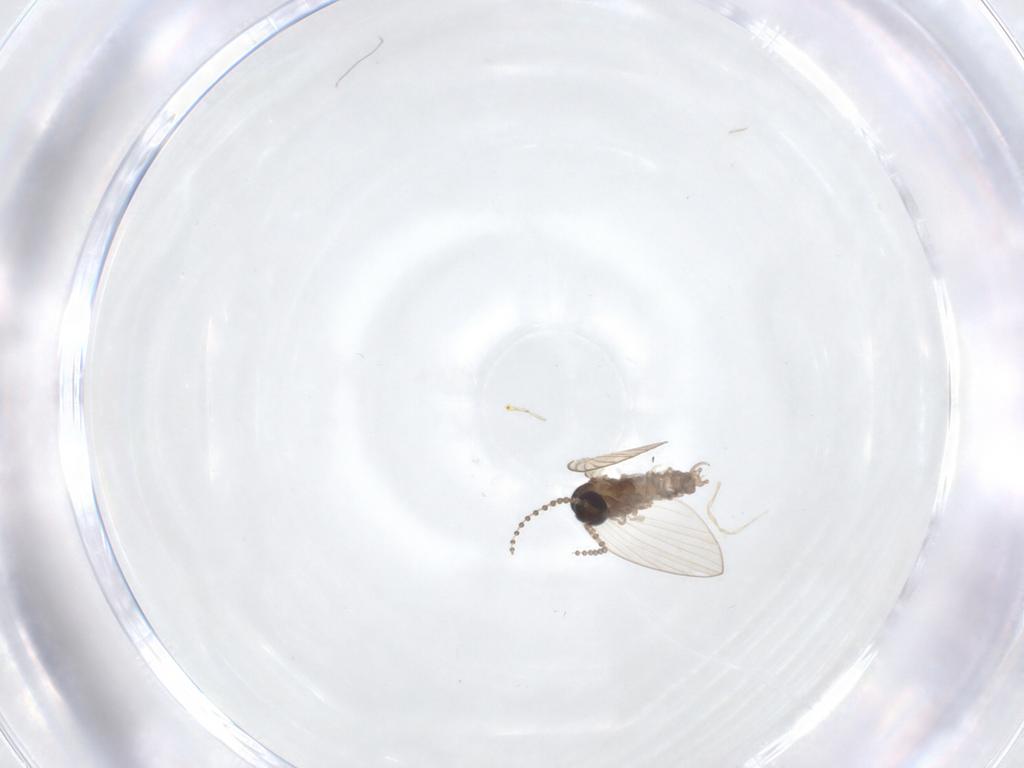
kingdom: Animalia
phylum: Arthropoda
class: Insecta
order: Diptera
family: Psychodidae
